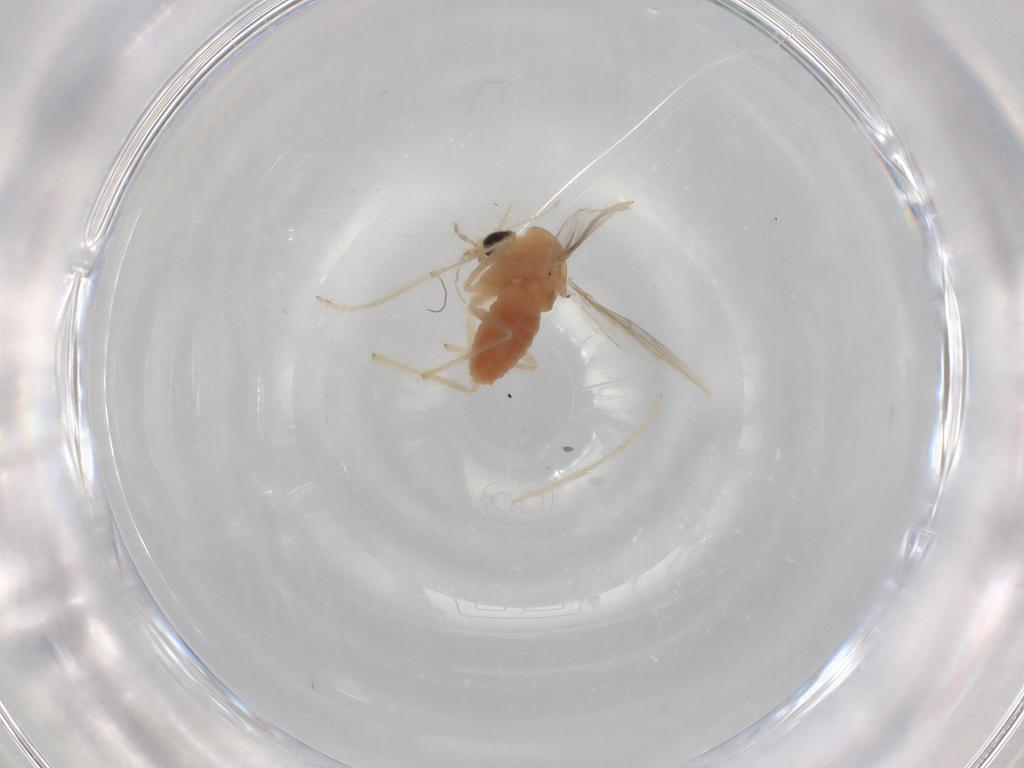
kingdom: Animalia
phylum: Arthropoda
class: Insecta
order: Diptera
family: Chironomidae
